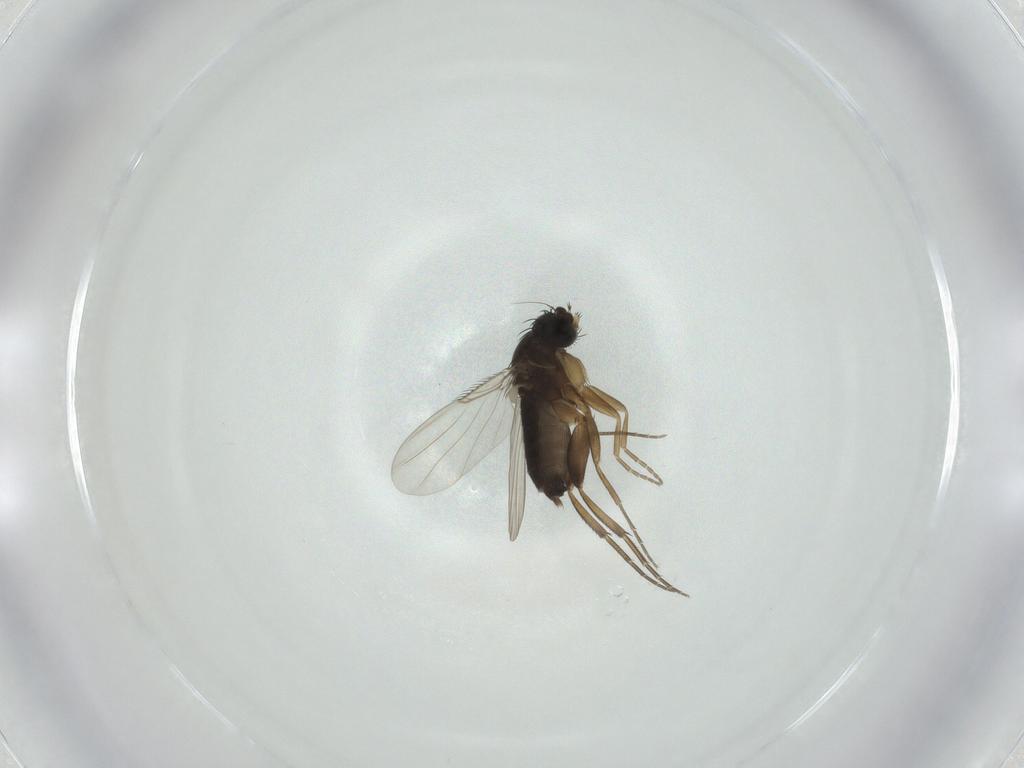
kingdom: Animalia
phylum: Arthropoda
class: Insecta
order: Diptera
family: Phoridae
